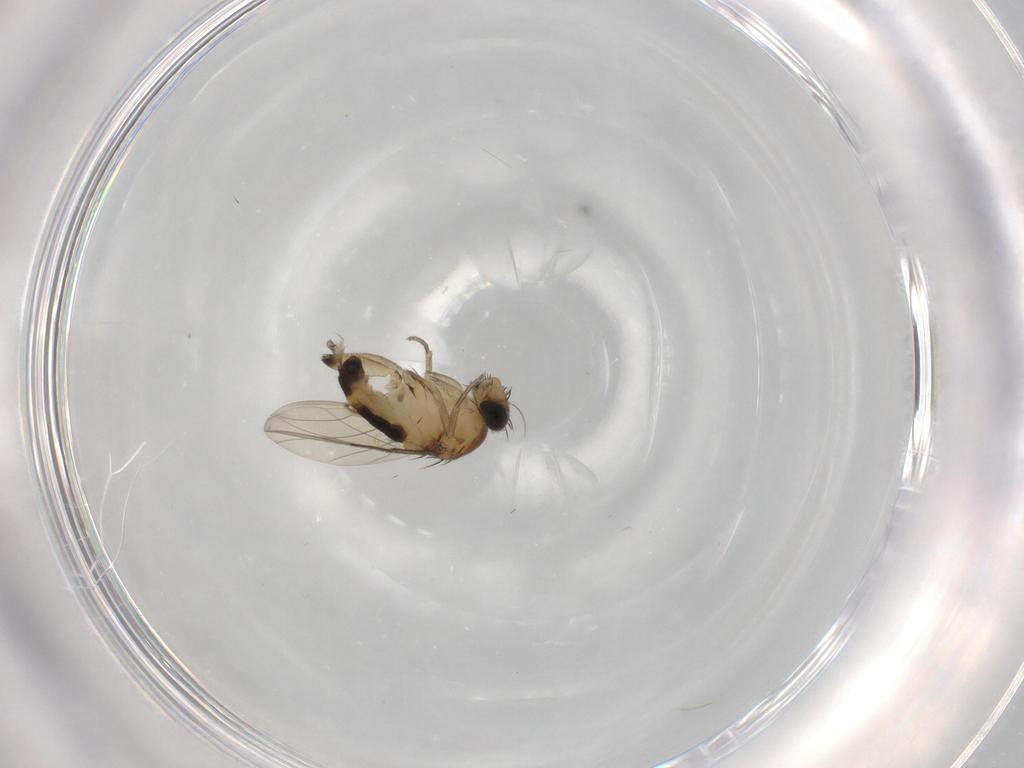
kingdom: Animalia
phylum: Arthropoda
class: Insecta
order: Diptera
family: Phoridae
